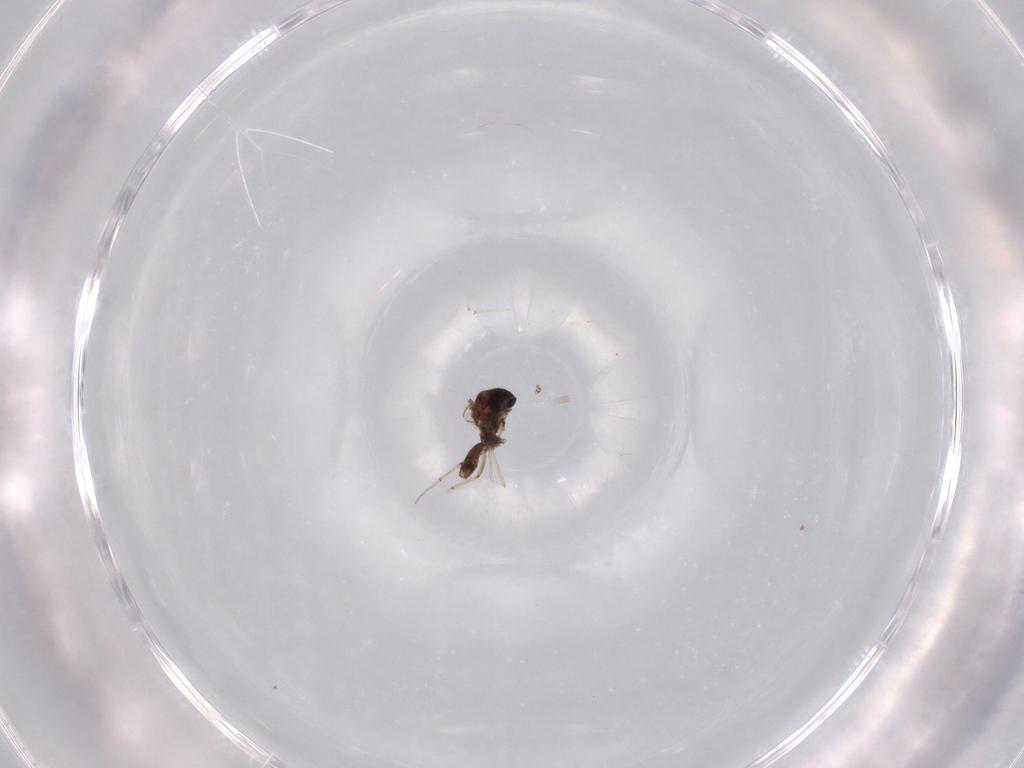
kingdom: Animalia
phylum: Arthropoda
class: Insecta
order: Diptera
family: Ceratopogonidae
